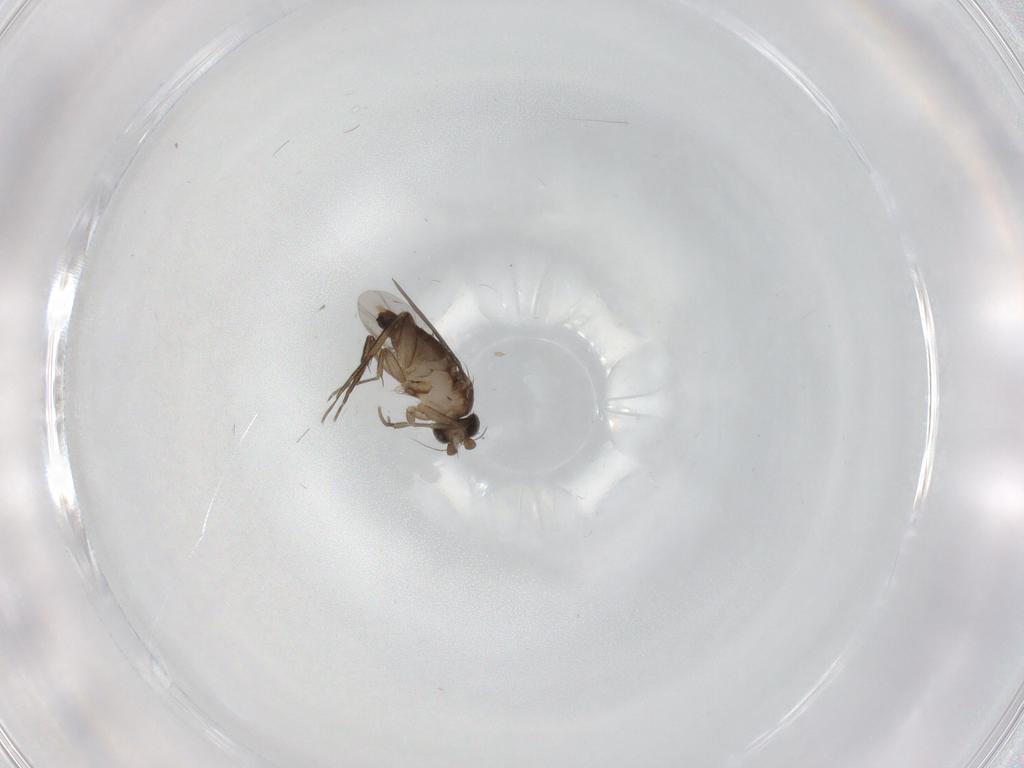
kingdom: Animalia
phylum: Arthropoda
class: Insecta
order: Diptera
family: Phoridae
